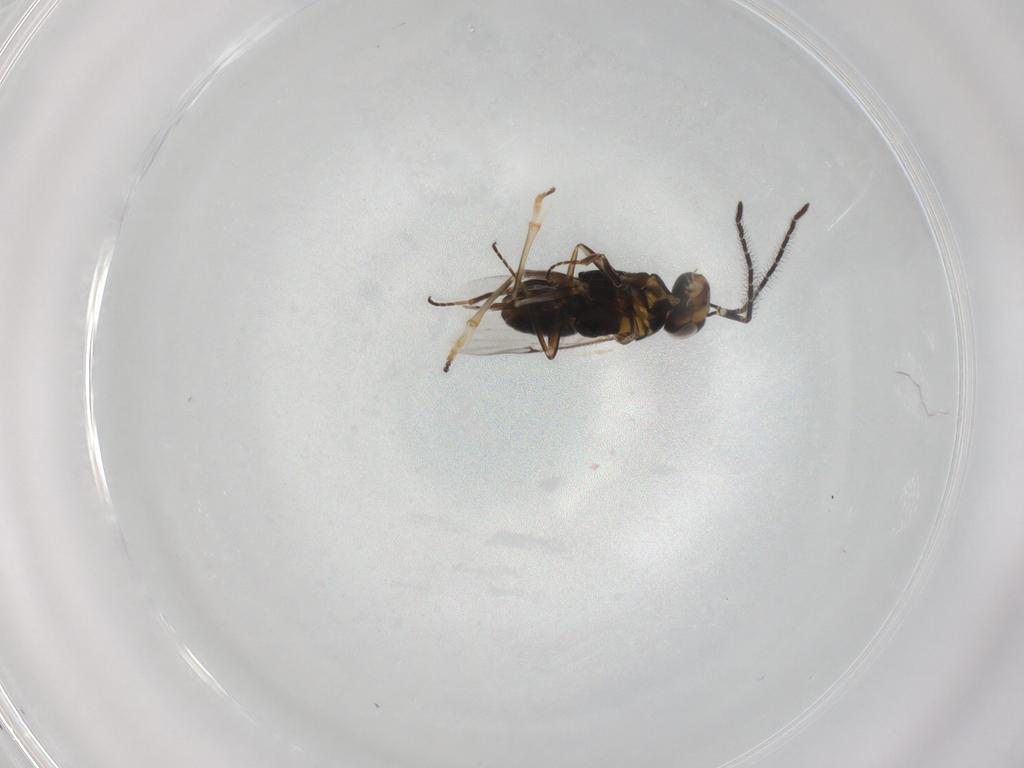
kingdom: Animalia
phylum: Arthropoda
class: Insecta
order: Hymenoptera
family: Encyrtidae
